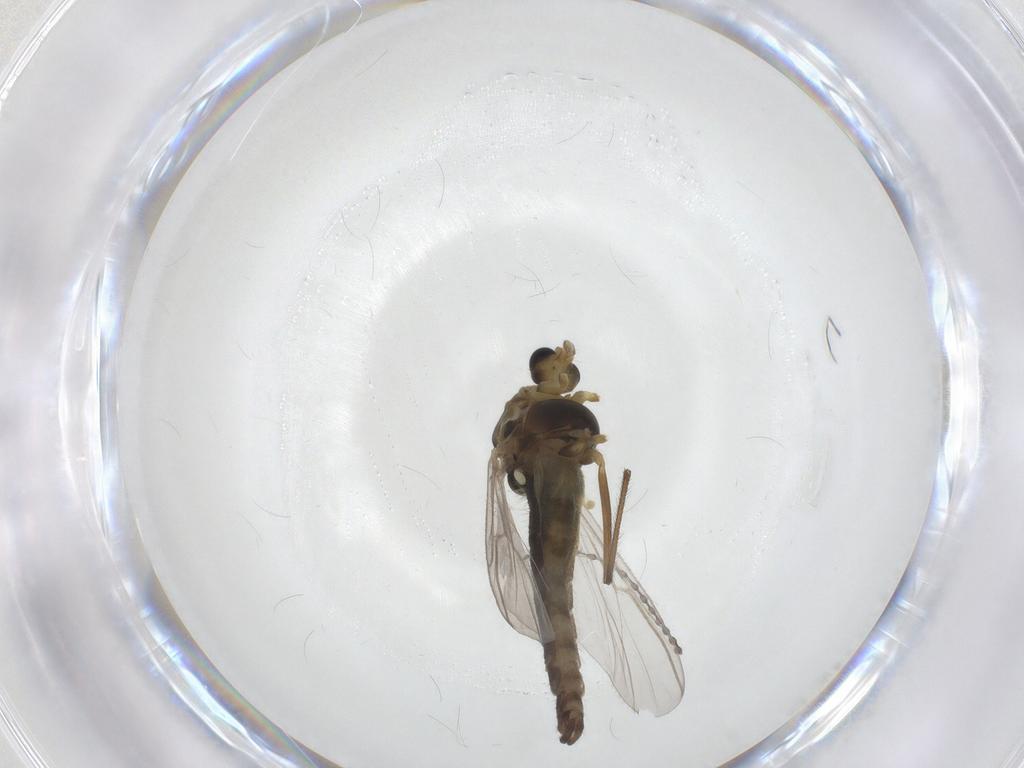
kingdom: Animalia
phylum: Arthropoda
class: Insecta
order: Diptera
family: Chironomidae
